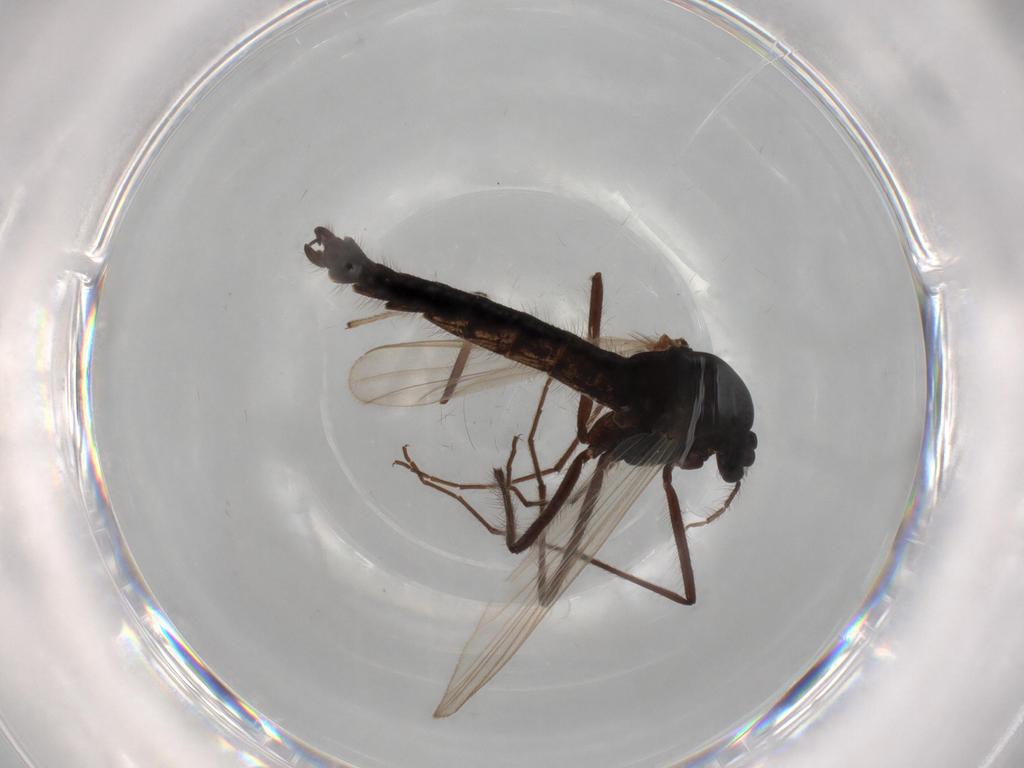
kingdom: Animalia
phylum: Arthropoda
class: Insecta
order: Diptera
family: Sciaridae
